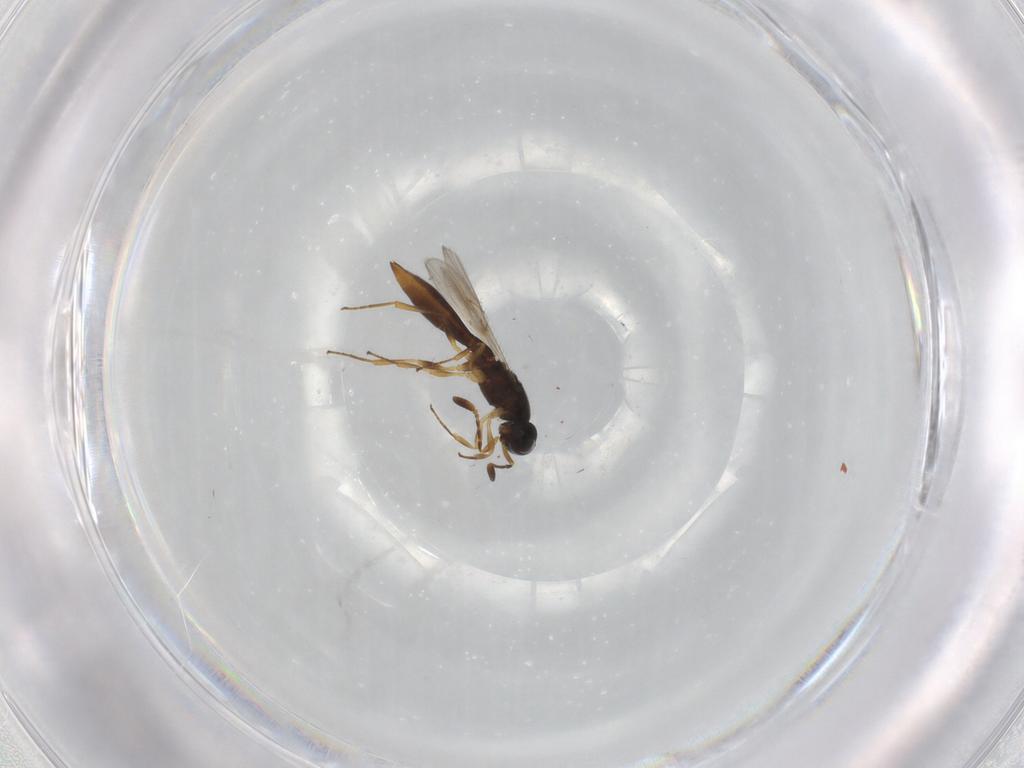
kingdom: Animalia
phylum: Arthropoda
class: Insecta
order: Hymenoptera
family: Scelionidae
